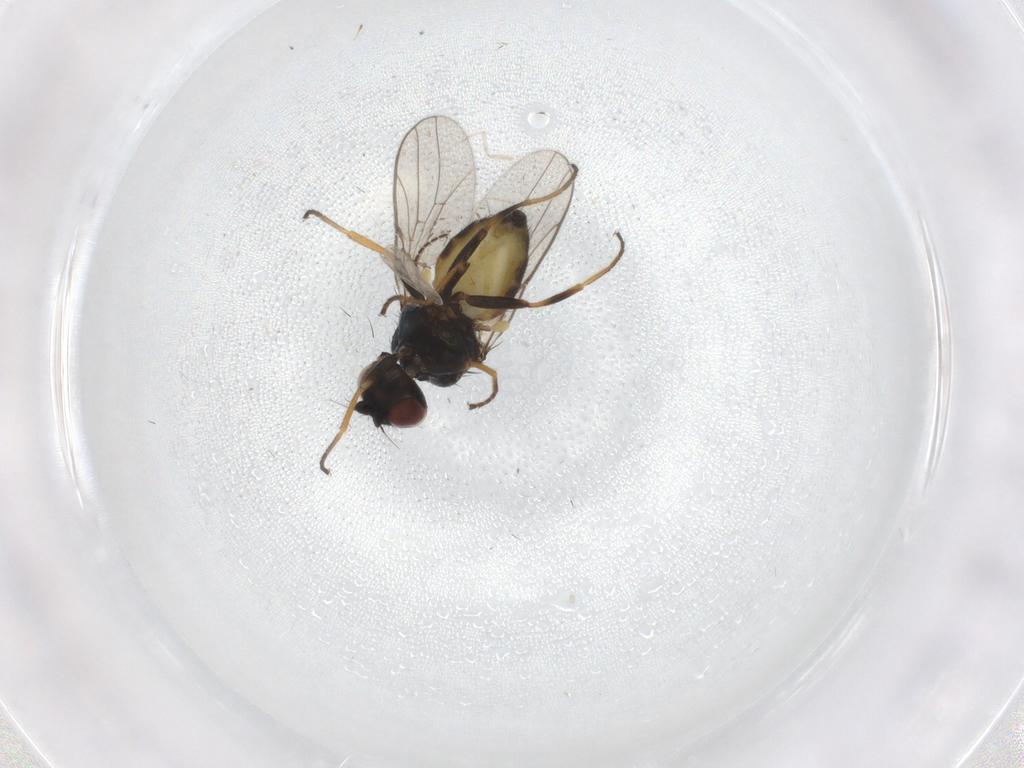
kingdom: Animalia
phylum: Arthropoda
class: Insecta
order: Diptera
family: Chloropidae
